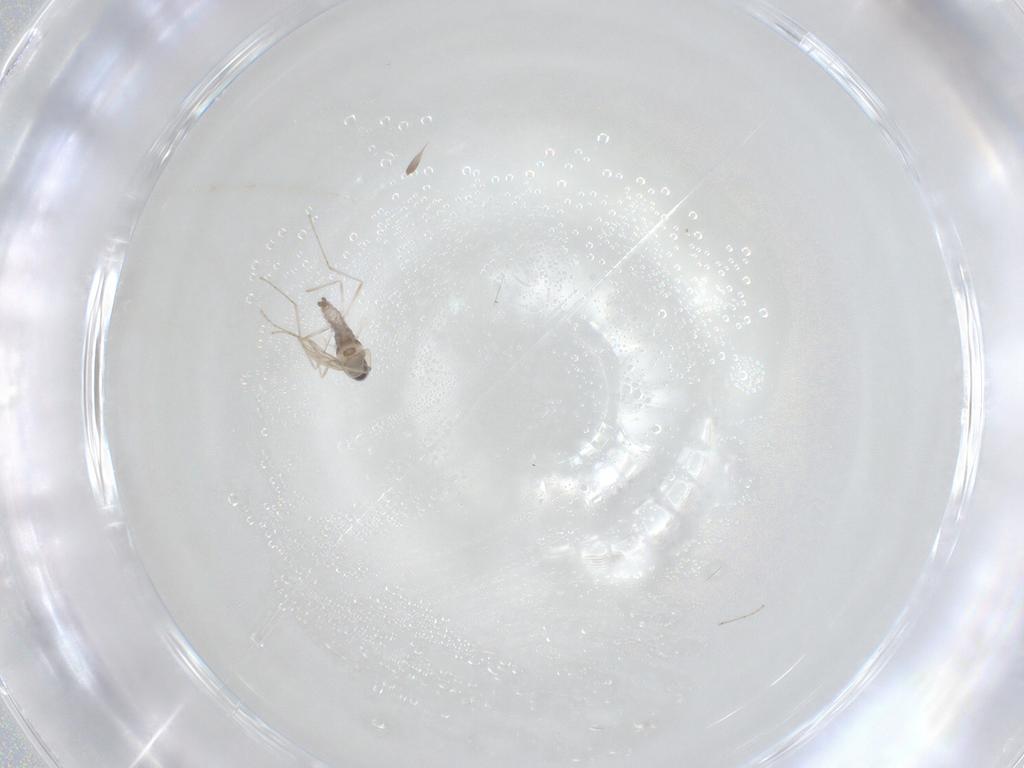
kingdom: Animalia
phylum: Arthropoda
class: Insecta
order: Diptera
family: Cecidomyiidae
